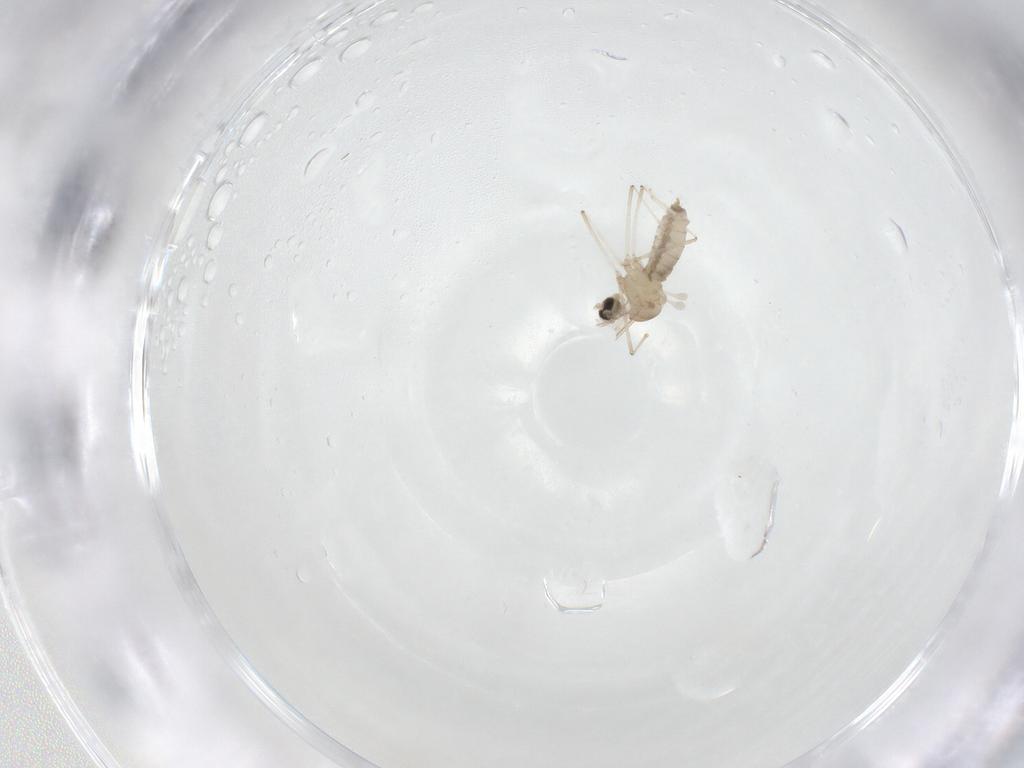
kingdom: Animalia
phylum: Arthropoda
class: Insecta
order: Diptera
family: Cecidomyiidae
